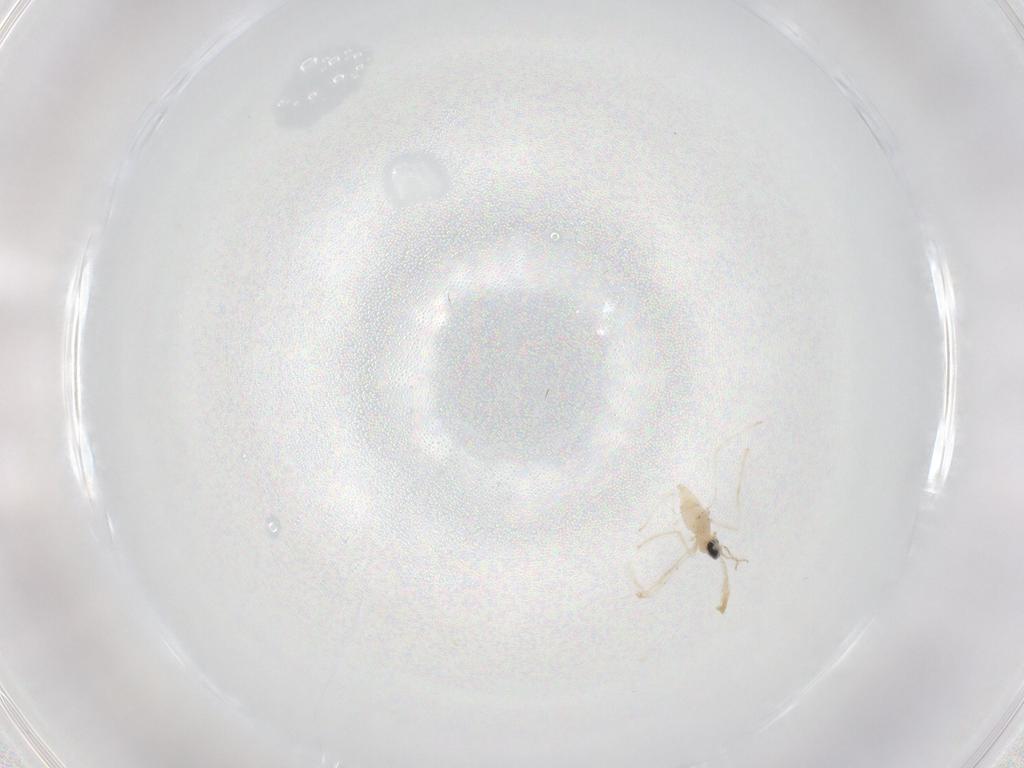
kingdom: Animalia
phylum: Arthropoda
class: Insecta
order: Diptera
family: Cecidomyiidae
